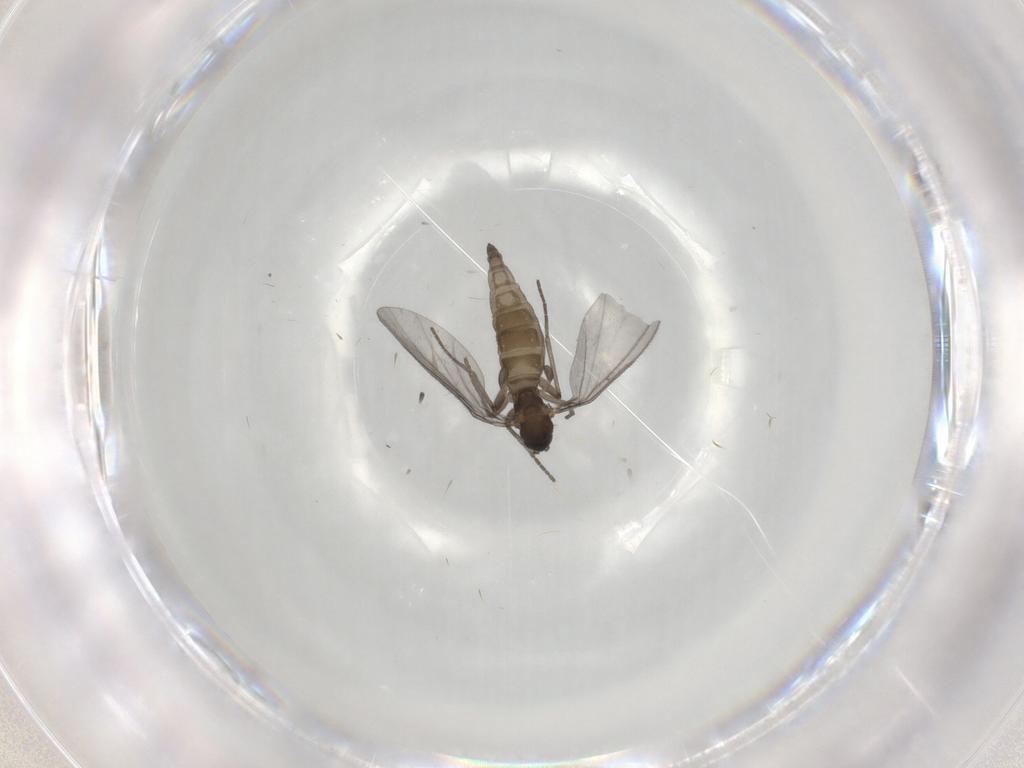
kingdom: Animalia
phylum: Arthropoda
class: Insecta
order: Diptera
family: Sciaridae
